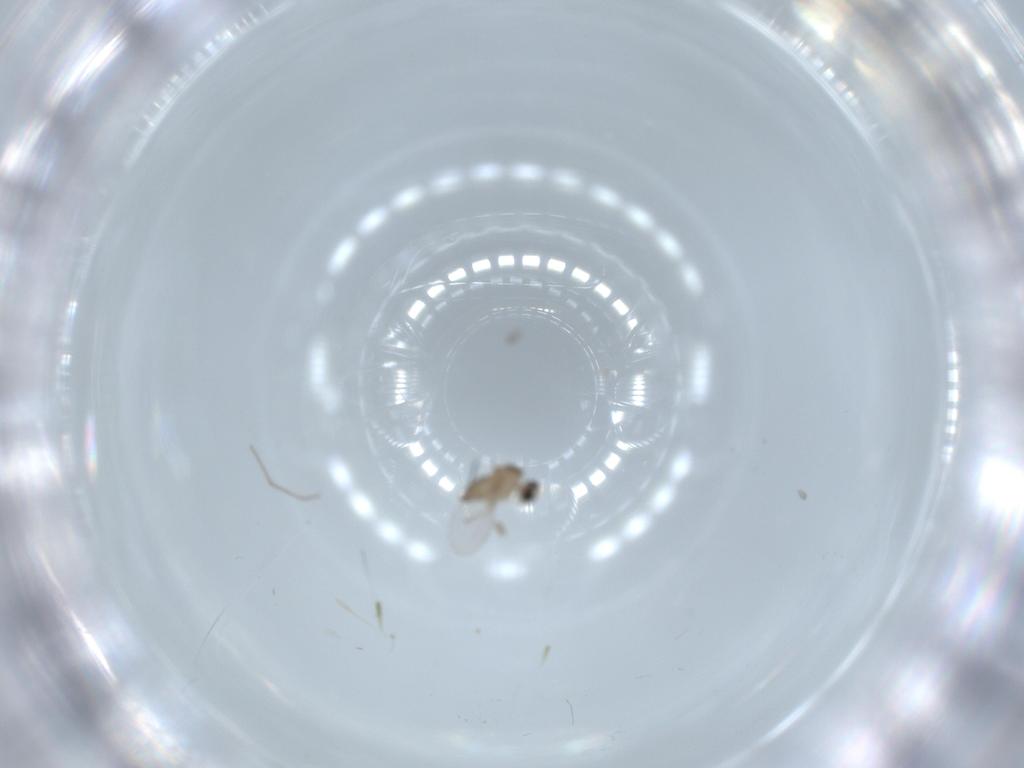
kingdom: Animalia
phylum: Arthropoda
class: Insecta
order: Diptera
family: Cecidomyiidae
